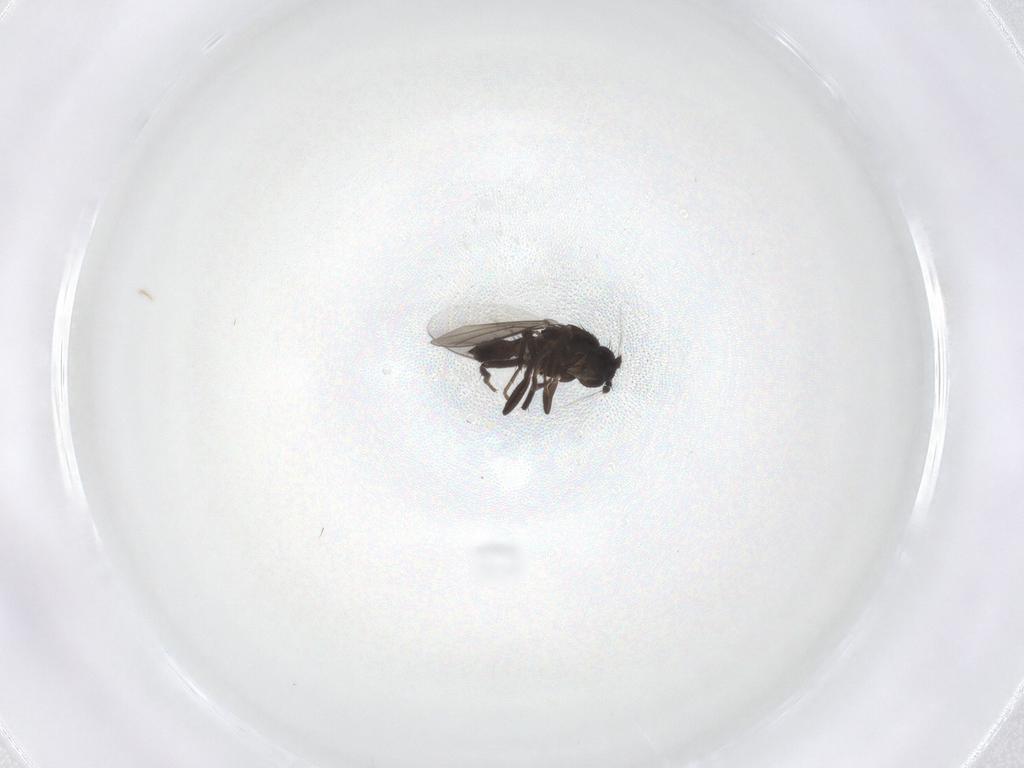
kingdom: Animalia
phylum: Arthropoda
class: Insecta
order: Diptera
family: Sphaeroceridae
